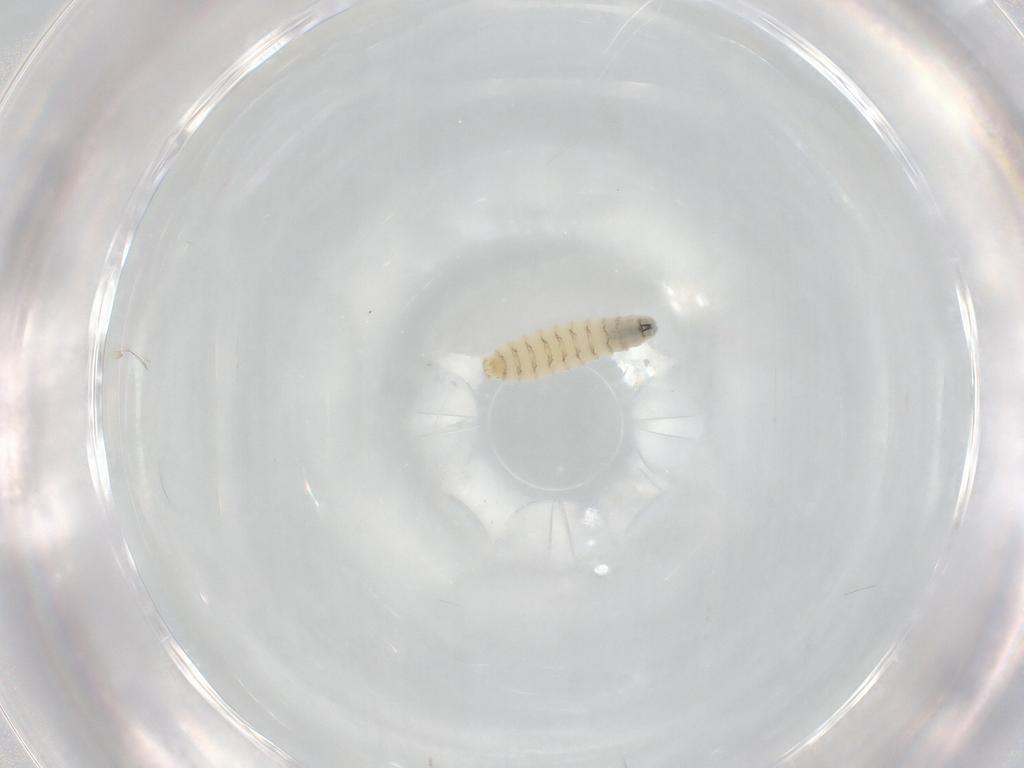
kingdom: Animalia
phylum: Arthropoda
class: Insecta
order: Diptera
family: Sarcophagidae
